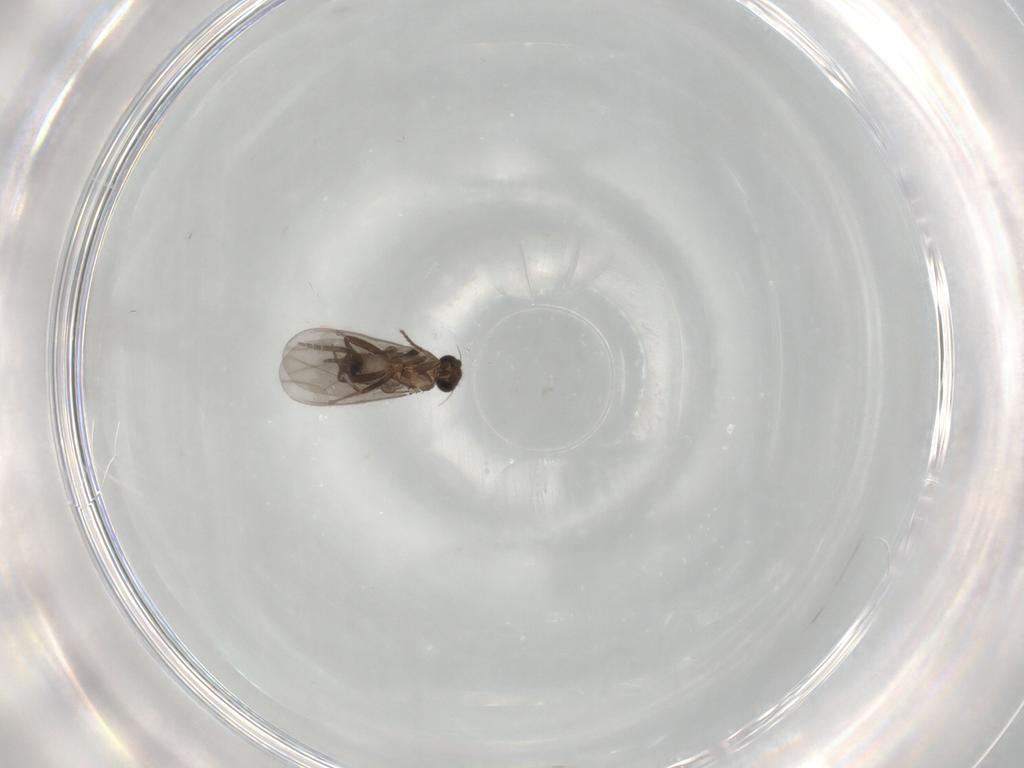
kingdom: Animalia
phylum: Arthropoda
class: Insecta
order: Diptera
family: Phoridae
